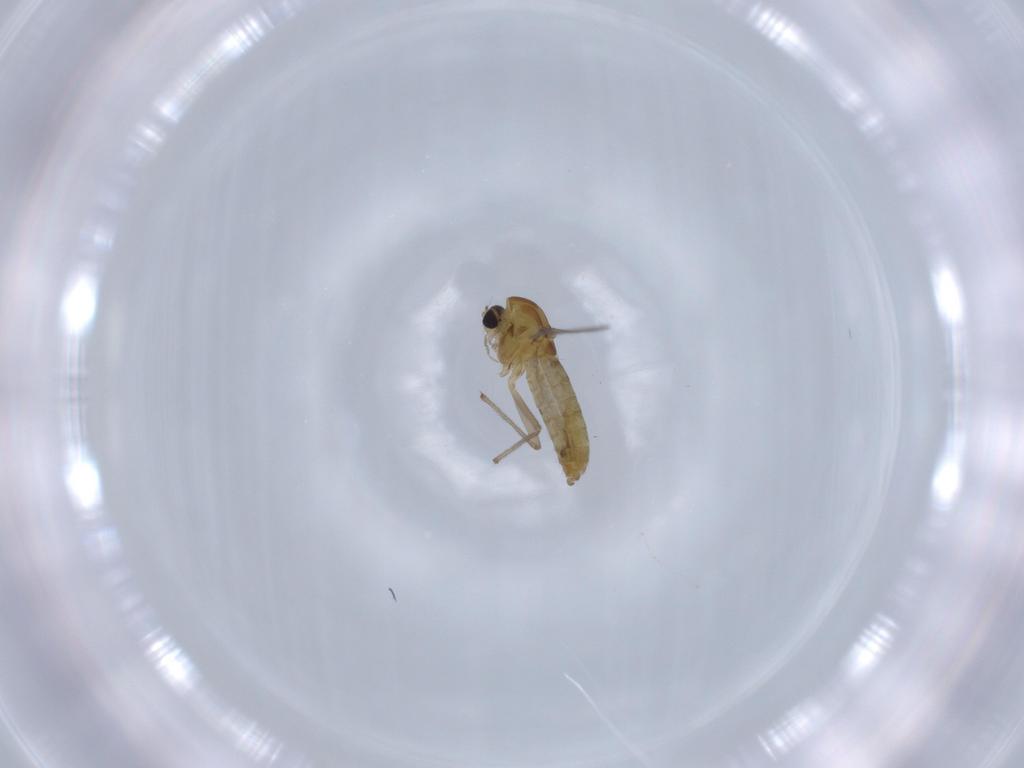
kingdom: Animalia
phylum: Arthropoda
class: Insecta
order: Diptera
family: Chironomidae
